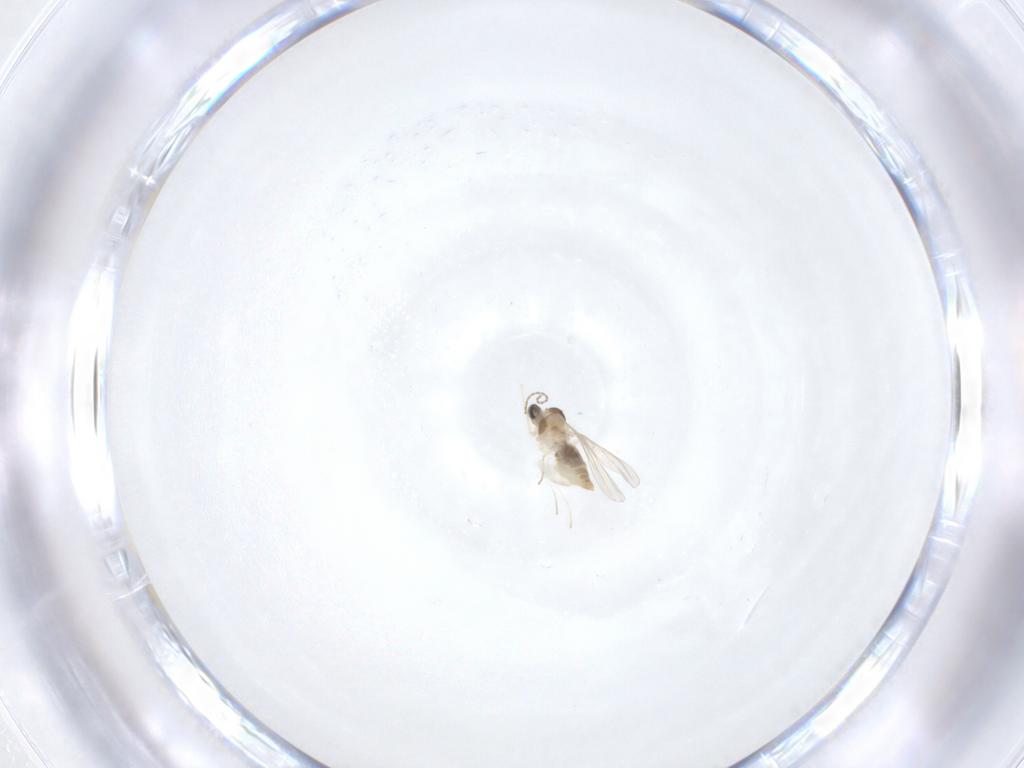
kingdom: Animalia
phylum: Arthropoda
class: Insecta
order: Diptera
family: Cecidomyiidae
